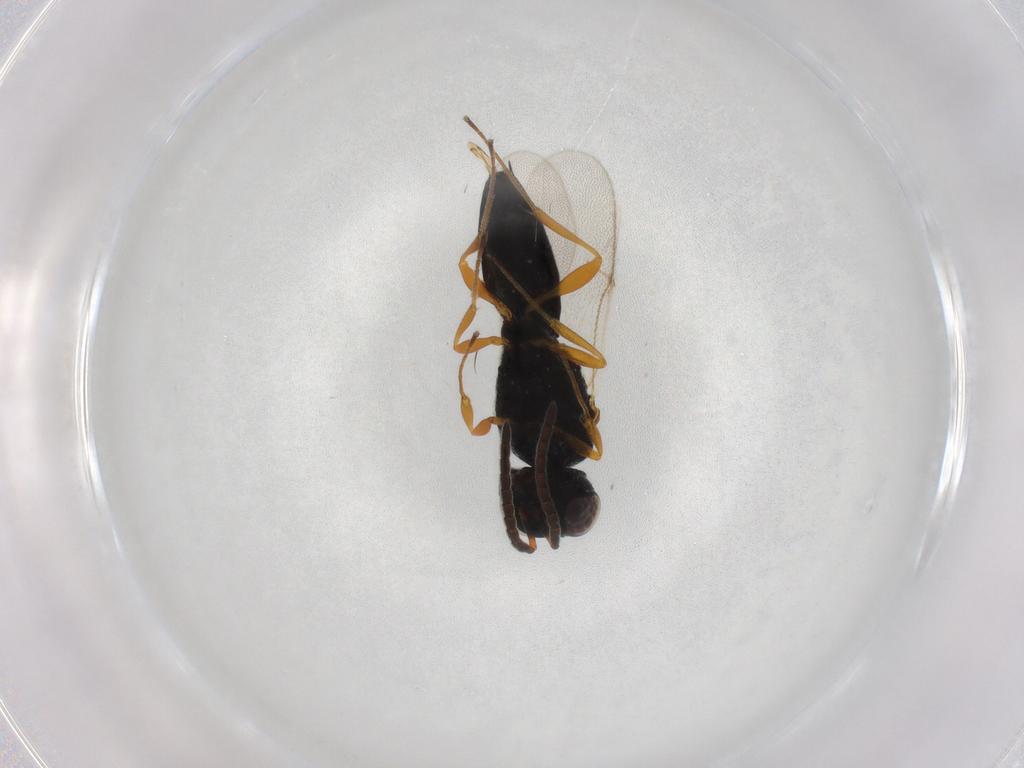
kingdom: Animalia
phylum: Arthropoda
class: Insecta
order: Hymenoptera
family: Scelionidae
